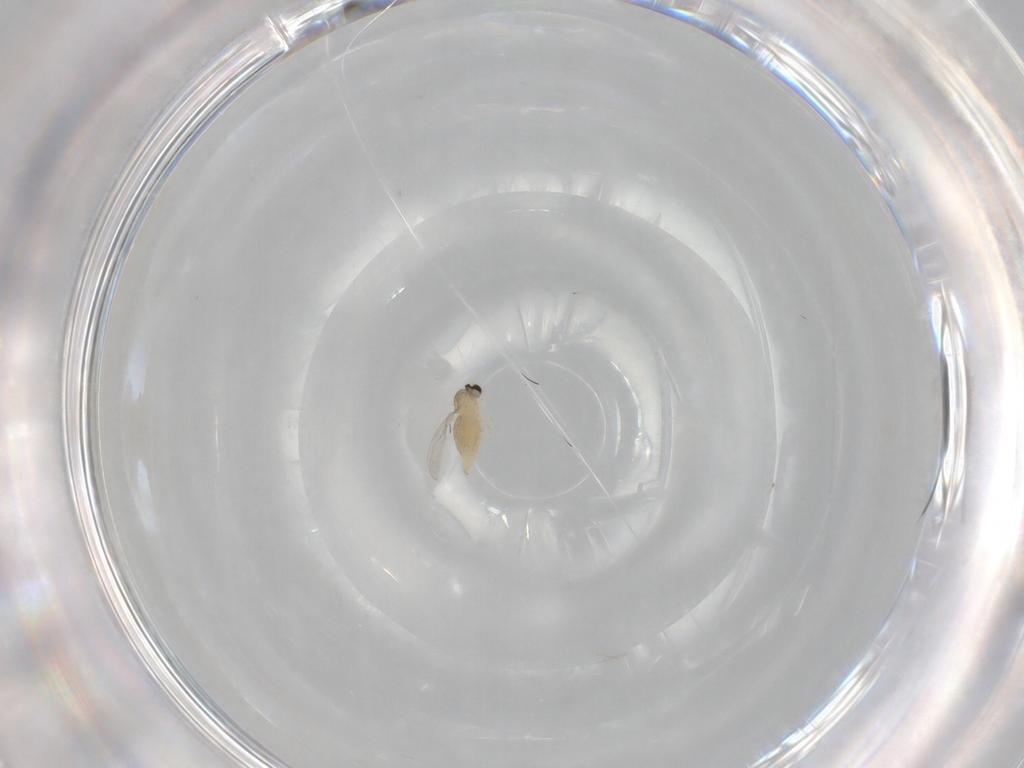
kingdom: Animalia
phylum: Arthropoda
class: Insecta
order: Diptera
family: Cecidomyiidae
